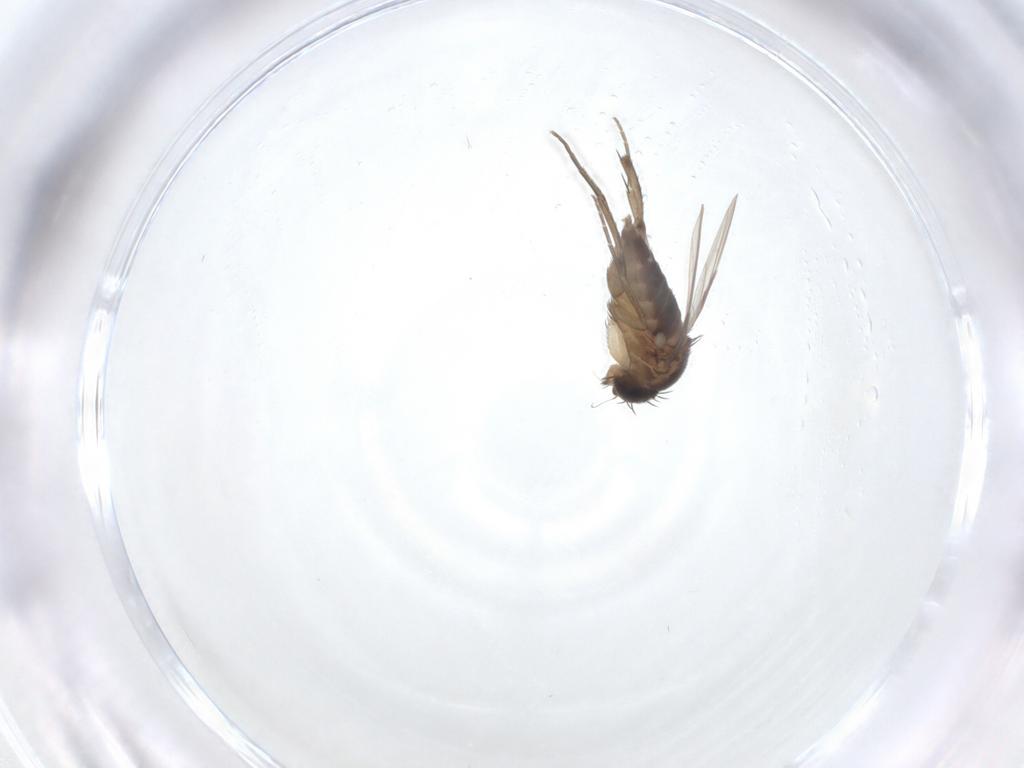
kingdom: Animalia
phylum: Arthropoda
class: Insecta
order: Diptera
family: Phoridae
